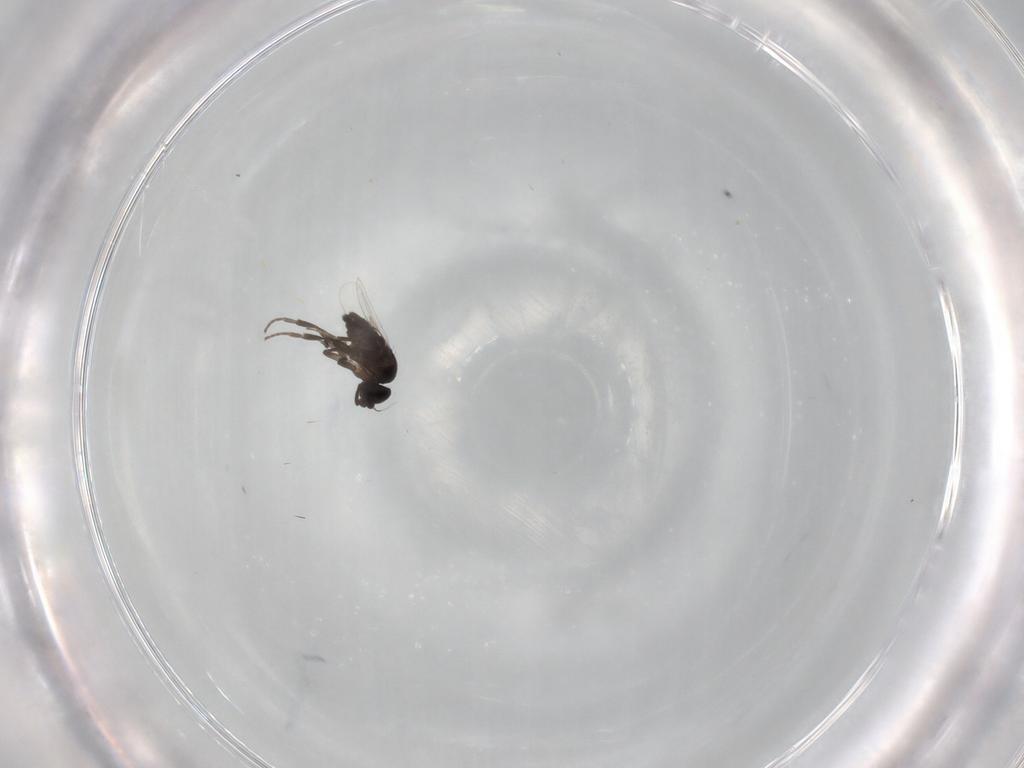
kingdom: Animalia
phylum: Arthropoda
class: Insecta
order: Diptera
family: Phoridae
